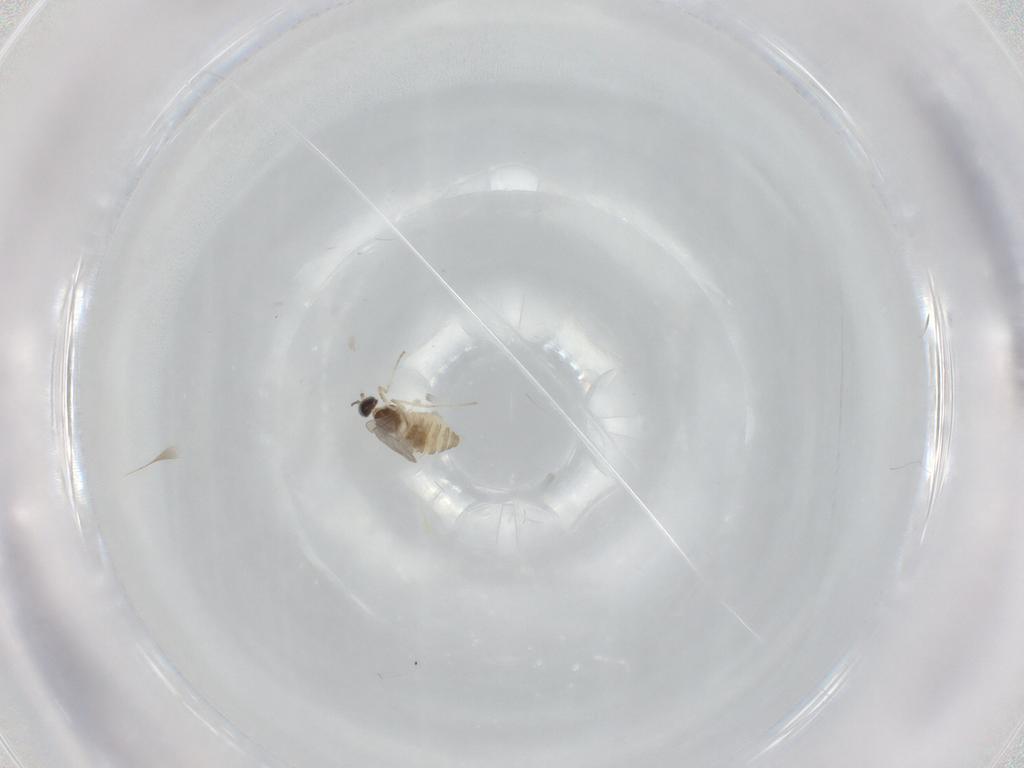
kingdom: Animalia
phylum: Arthropoda
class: Insecta
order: Diptera
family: Cecidomyiidae
